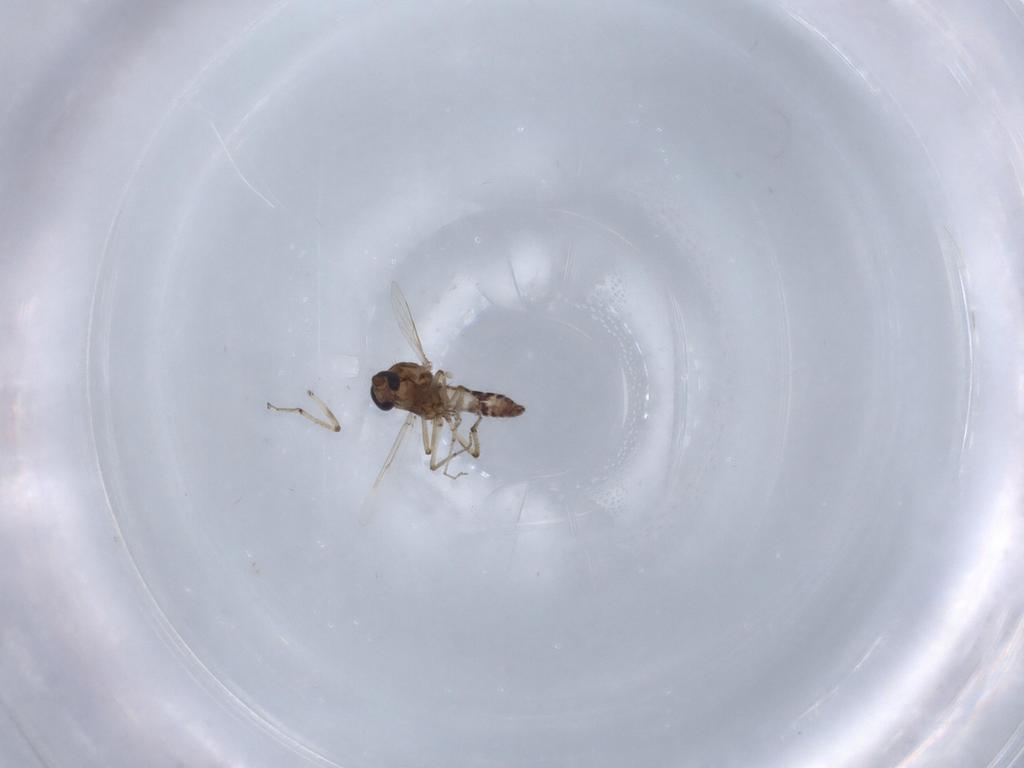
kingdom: Animalia
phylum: Arthropoda
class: Insecta
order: Diptera
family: Ceratopogonidae
